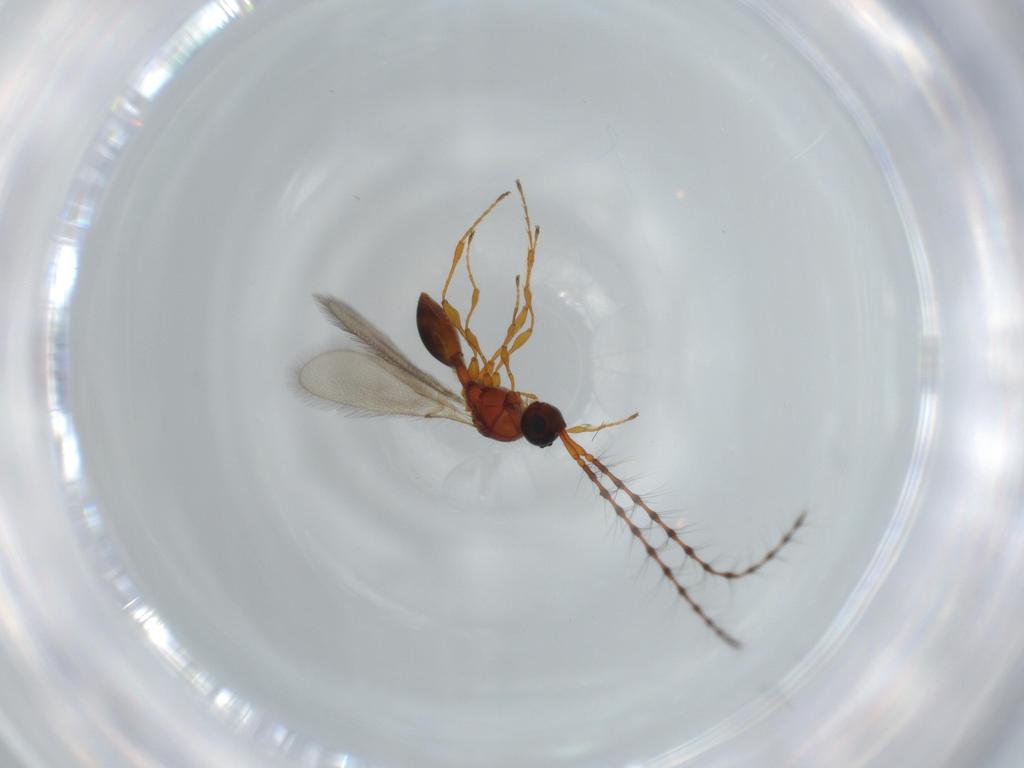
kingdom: Animalia
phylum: Arthropoda
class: Insecta
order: Hymenoptera
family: Diapriidae
